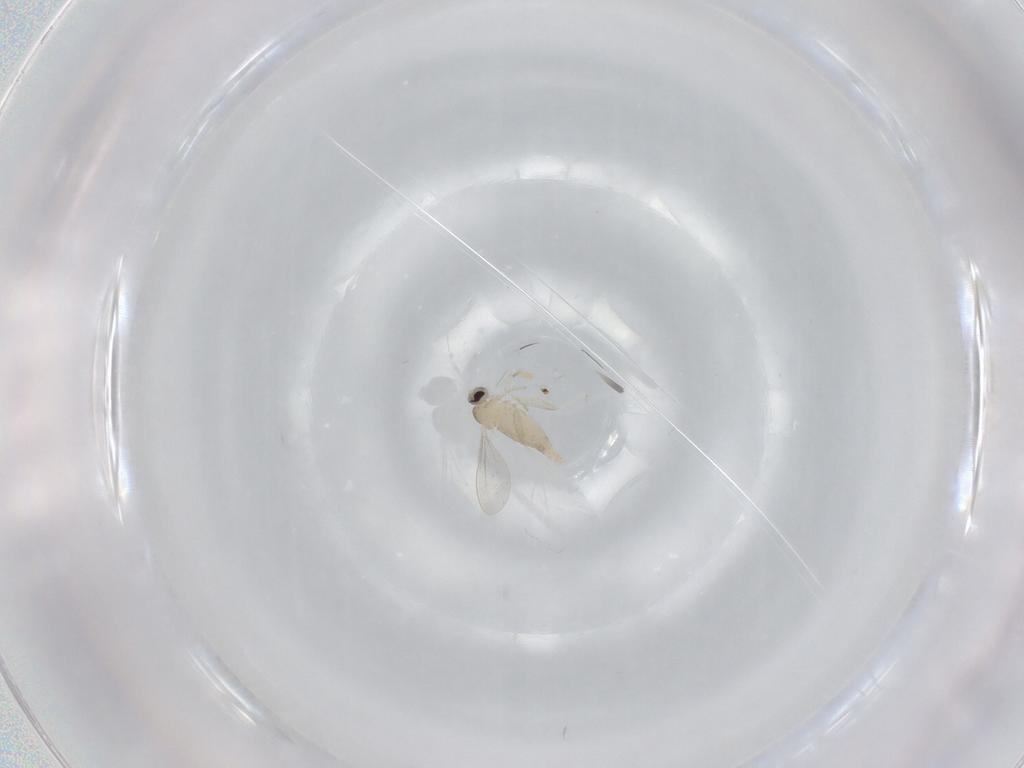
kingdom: Animalia
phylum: Arthropoda
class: Insecta
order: Diptera
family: Cecidomyiidae
